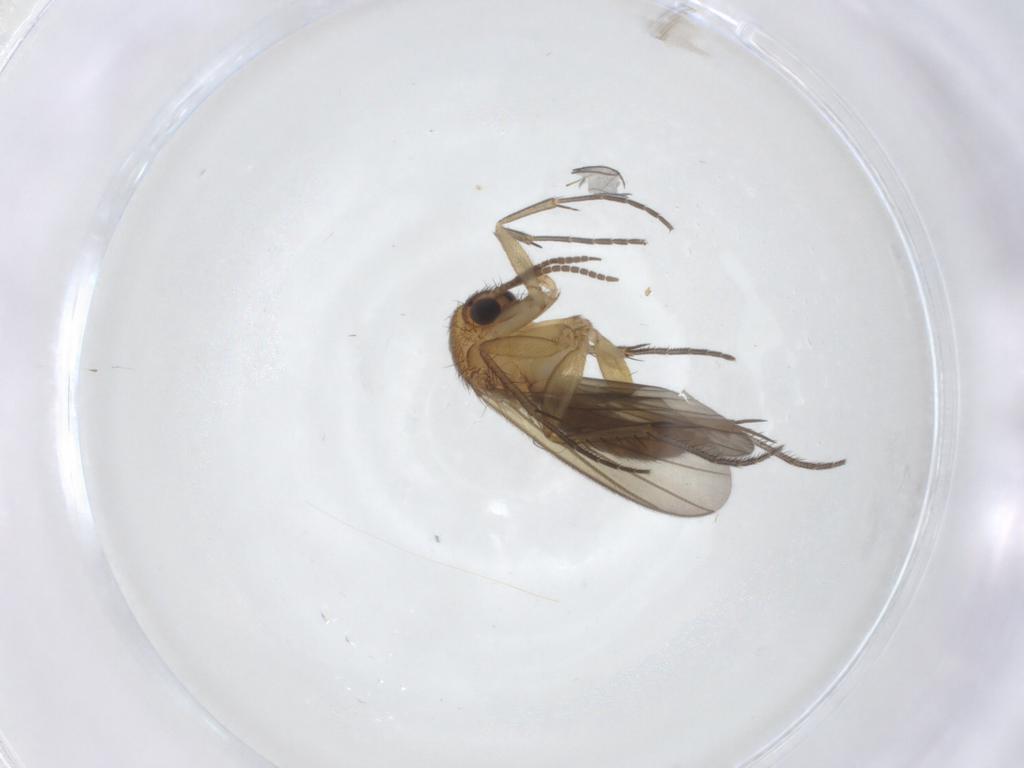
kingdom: Animalia
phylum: Arthropoda
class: Insecta
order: Diptera
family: Mycetophilidae
